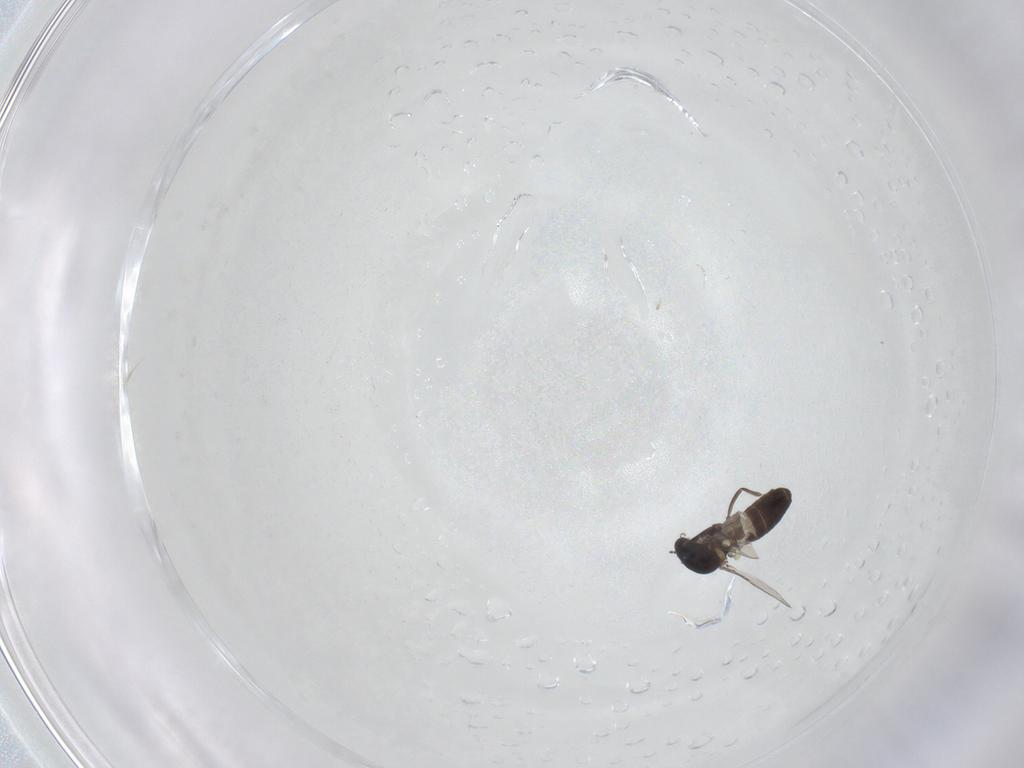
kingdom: Animalia
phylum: Arthropoda
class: Insecta
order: Diptera
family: Ceratopogonidae
